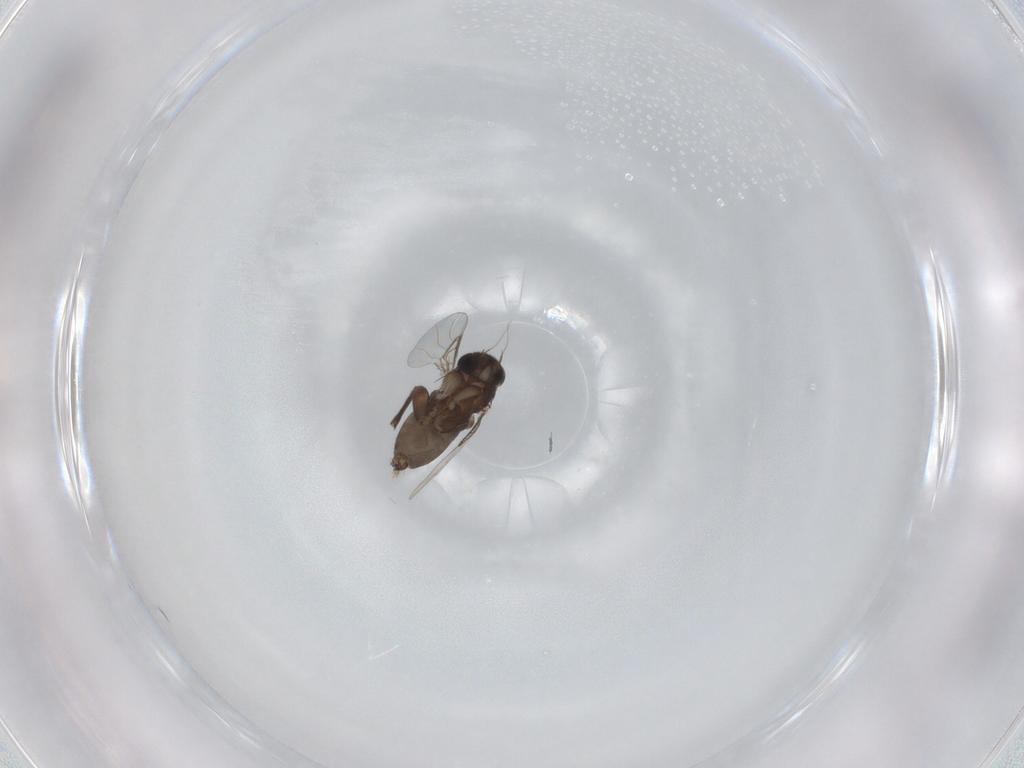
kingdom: Animalia
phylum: Arthropoda
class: Insecta
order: Diptera
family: Phoridae
